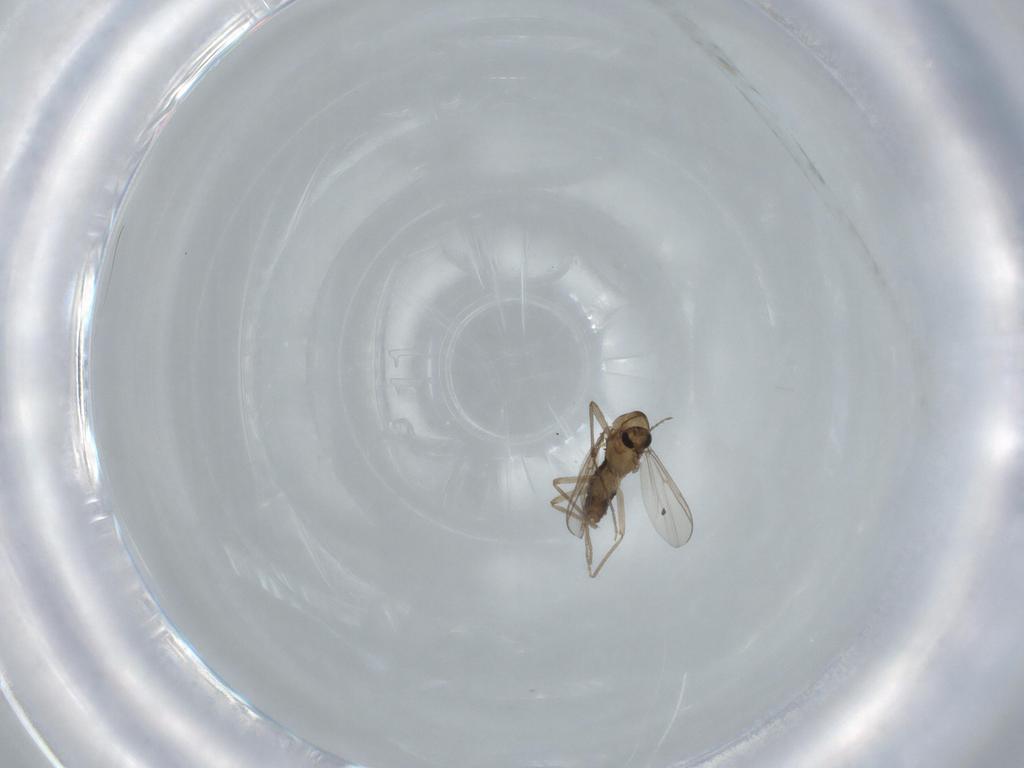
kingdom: Animalia
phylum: Arthropoda
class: Insecta
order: Diptera
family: Chironomidae
